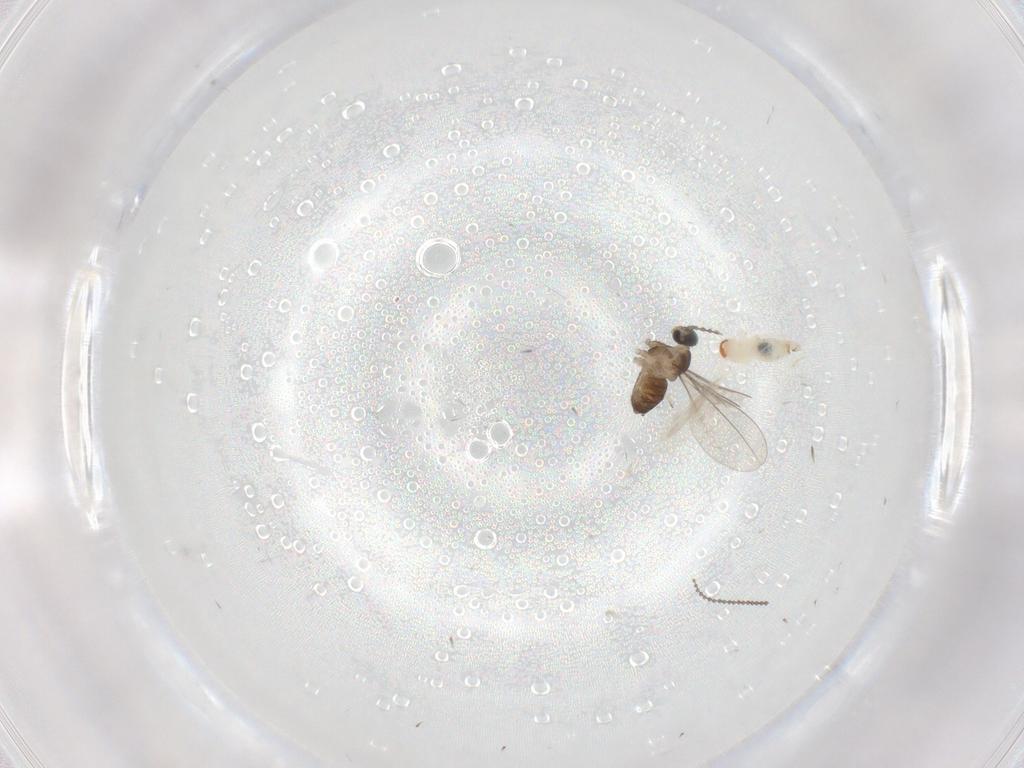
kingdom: Animalia
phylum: Arthropoda
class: Insecta
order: Diptera
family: Cecidomyiidae
